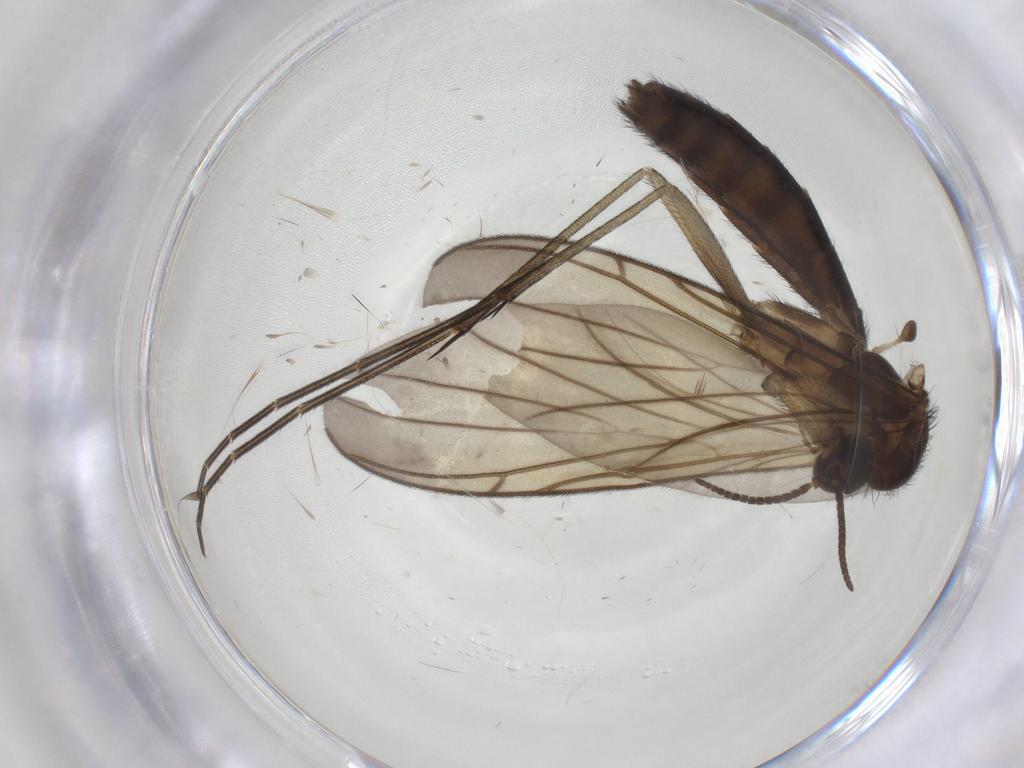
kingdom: Animalia
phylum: Arthropoda
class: Insecta
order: Diptera
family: Keroplatidae
